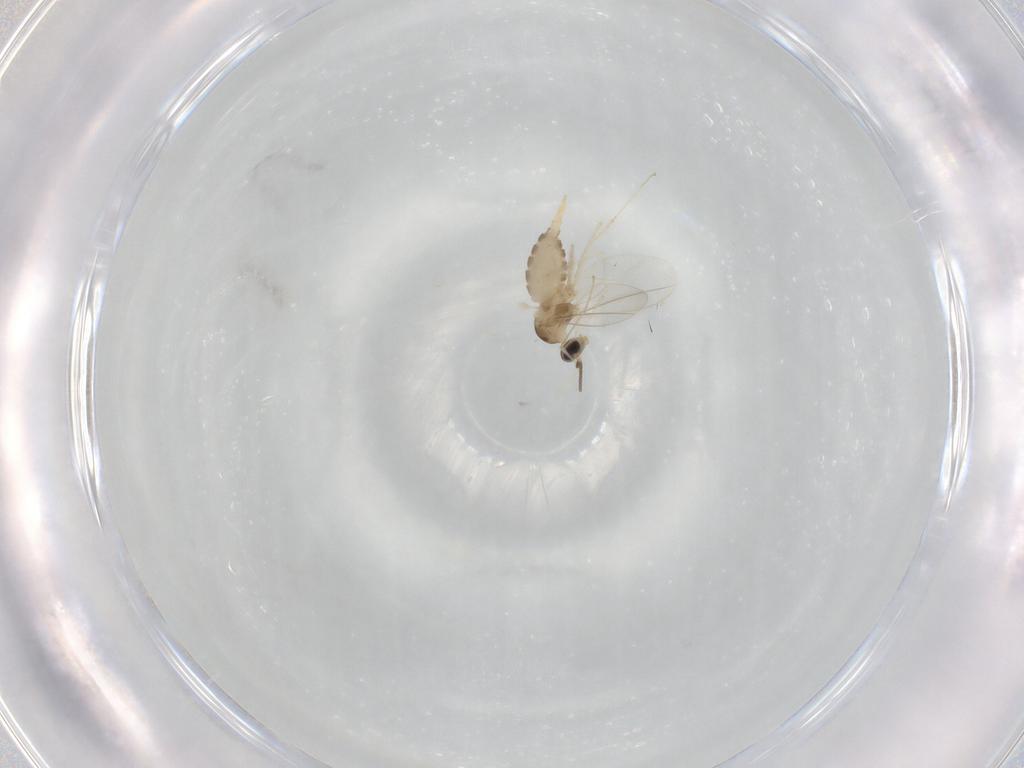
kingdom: Animalia
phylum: Arthropoda
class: Insecta
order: Diptera
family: Cecidomyiidae
